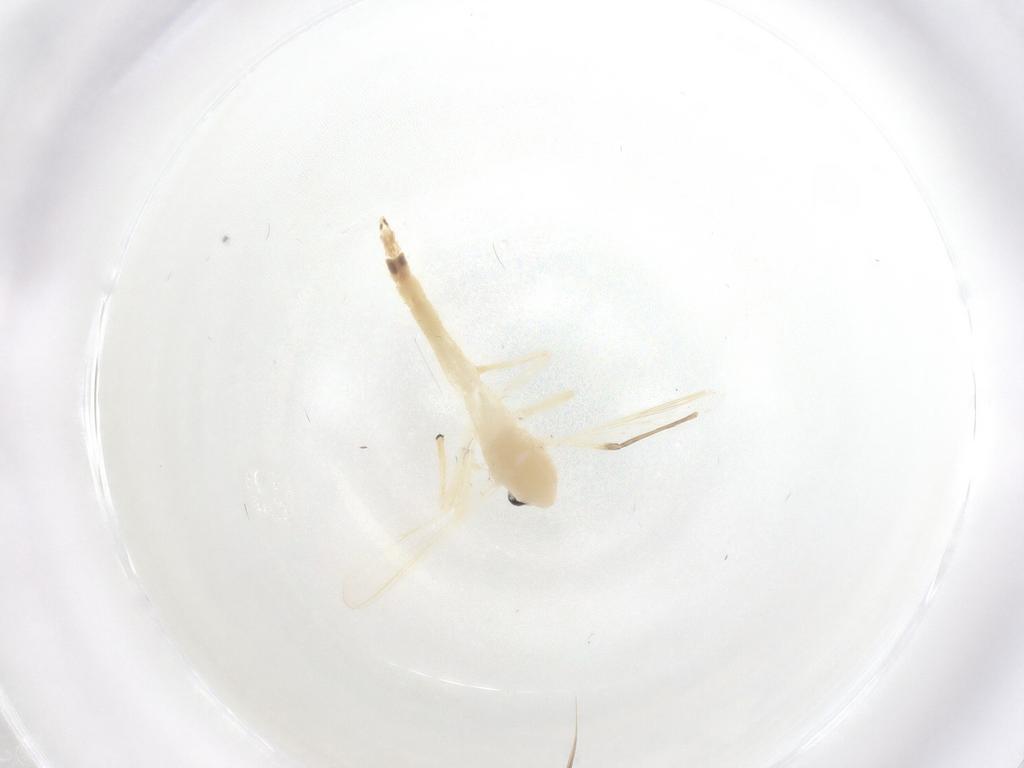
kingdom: Animalia
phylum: Arthropoda
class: Insecta
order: Diptera
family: Chironomidae
